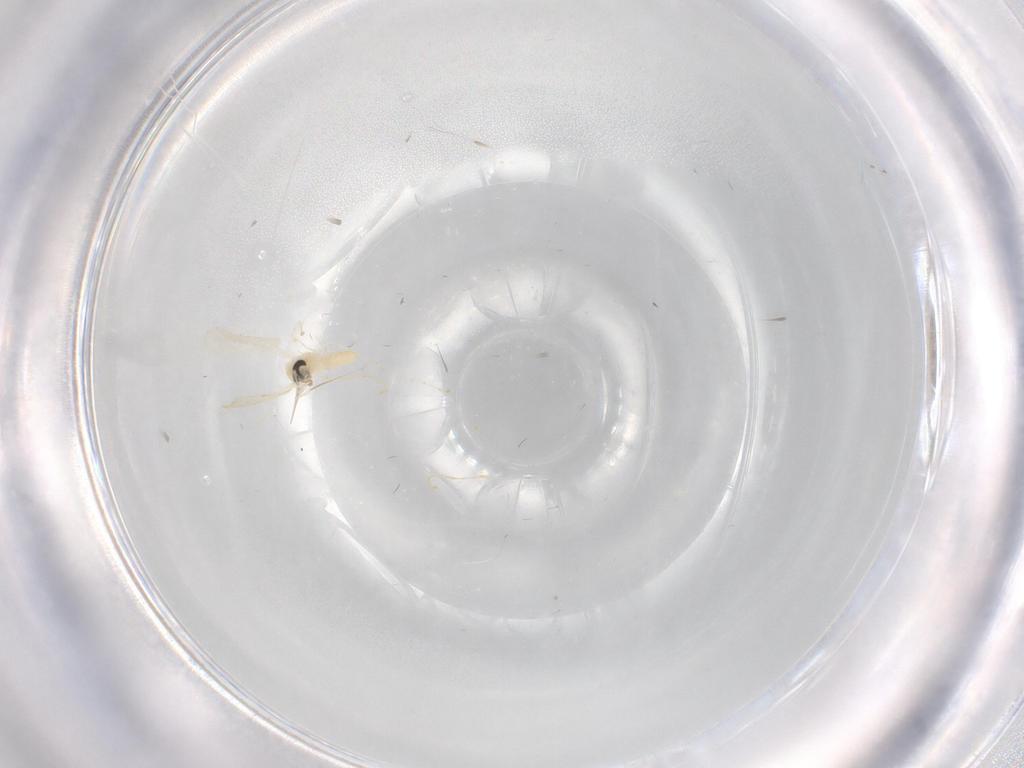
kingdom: Animalia
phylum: Arthropoda
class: Insecta
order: Diptera
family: Cecidomyiidae
